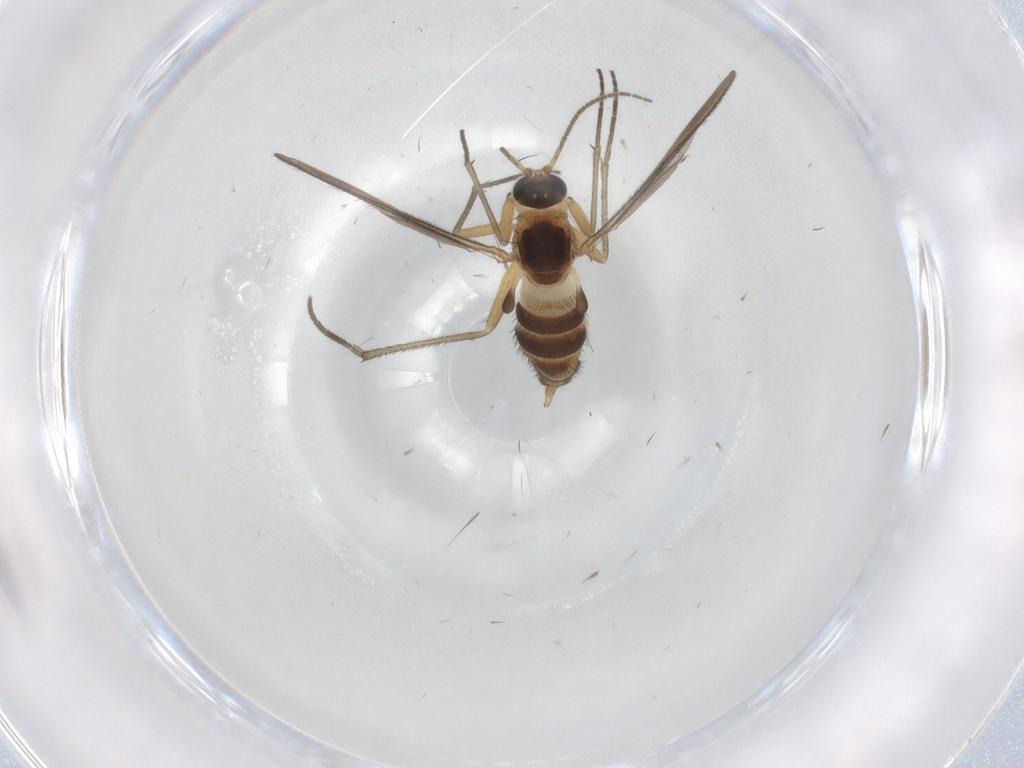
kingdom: Animalia
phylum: Arthropoda
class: Insecta
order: Diptera
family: Sciaridae
